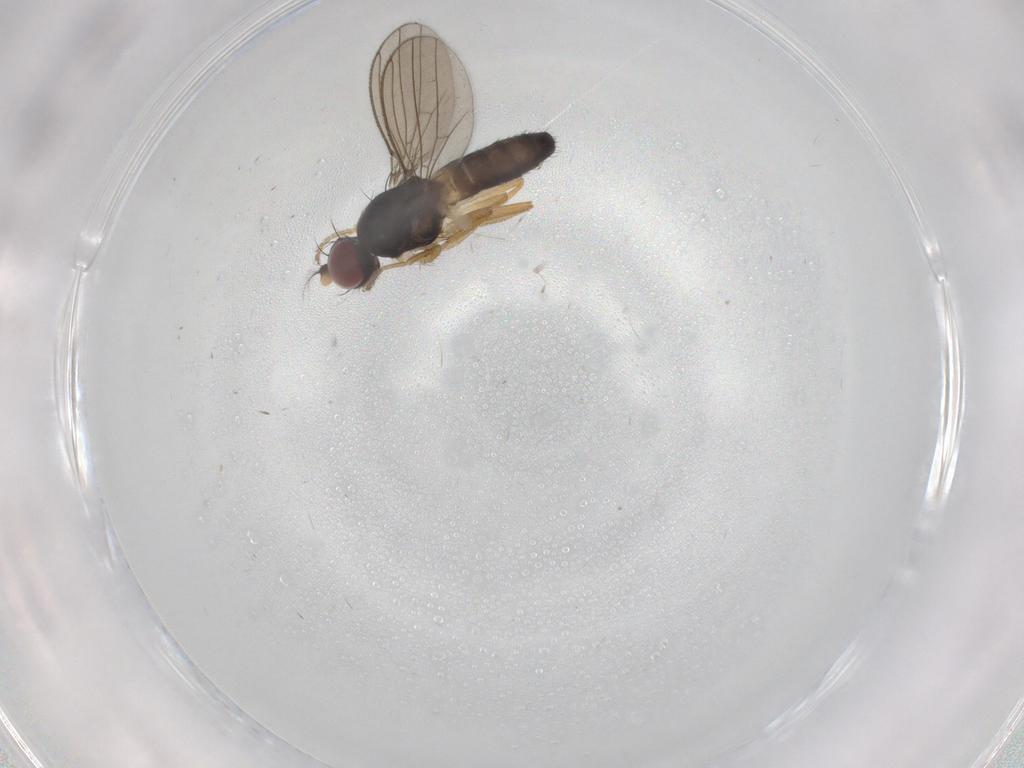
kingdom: Animalia
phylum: Arthropoda
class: Insecta
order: Diptera
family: Anthomyzidae
